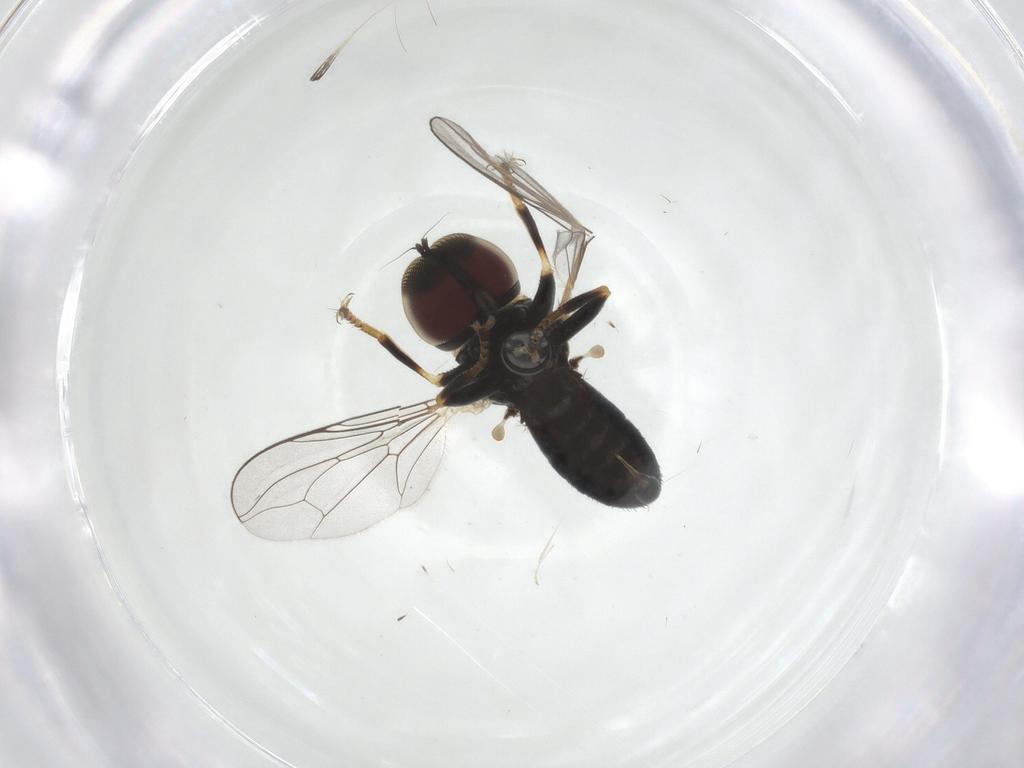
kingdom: Animalia
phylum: Arthropoda
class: Insecta
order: Diptera
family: Pipunculidae
